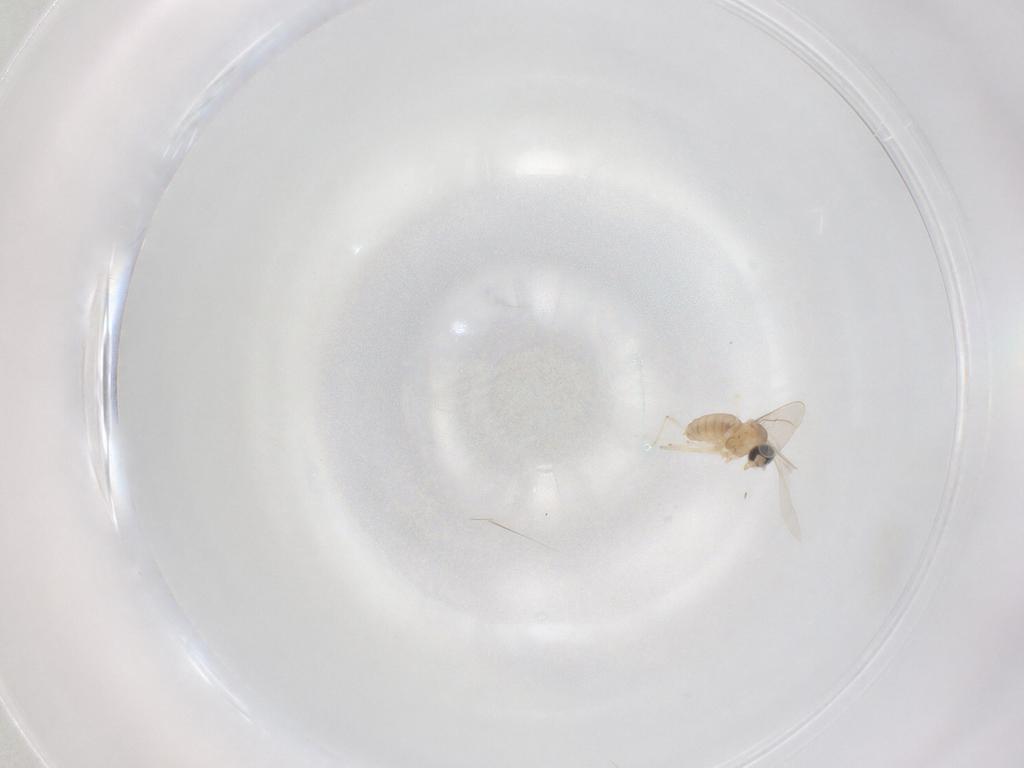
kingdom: Animalia
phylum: Arthropoda
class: Insecta
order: Diptera
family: Cecidomyiidae
